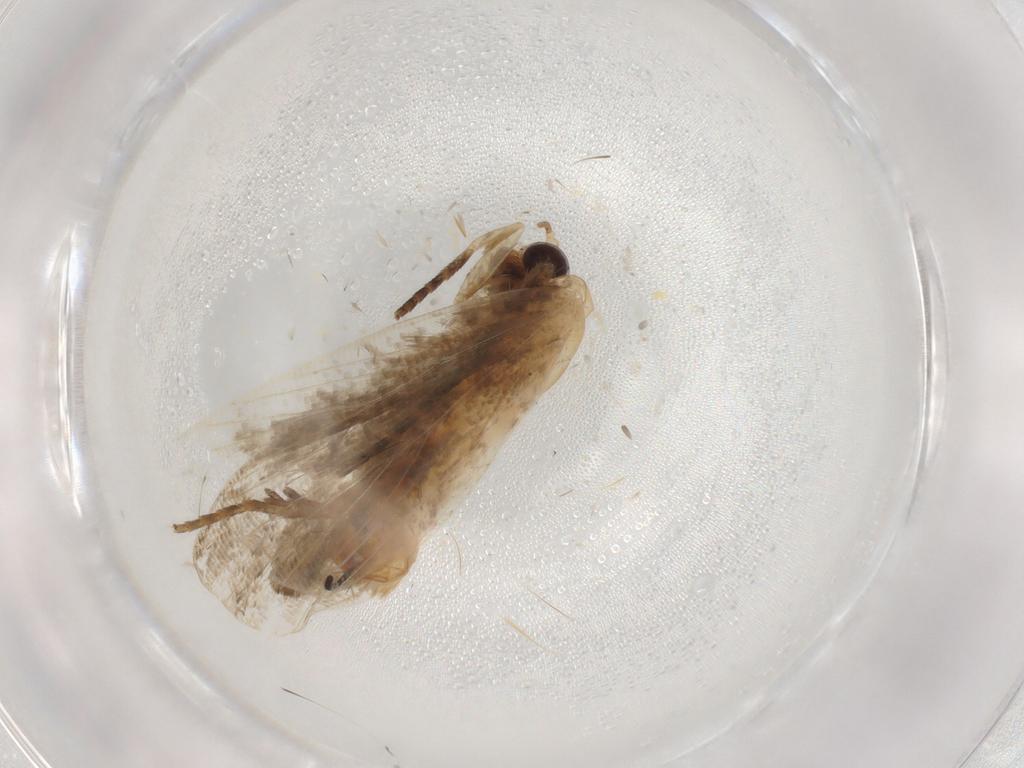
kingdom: Animalia
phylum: Arthropoda
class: Insecta
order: Lepidoptera
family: Erebidae
